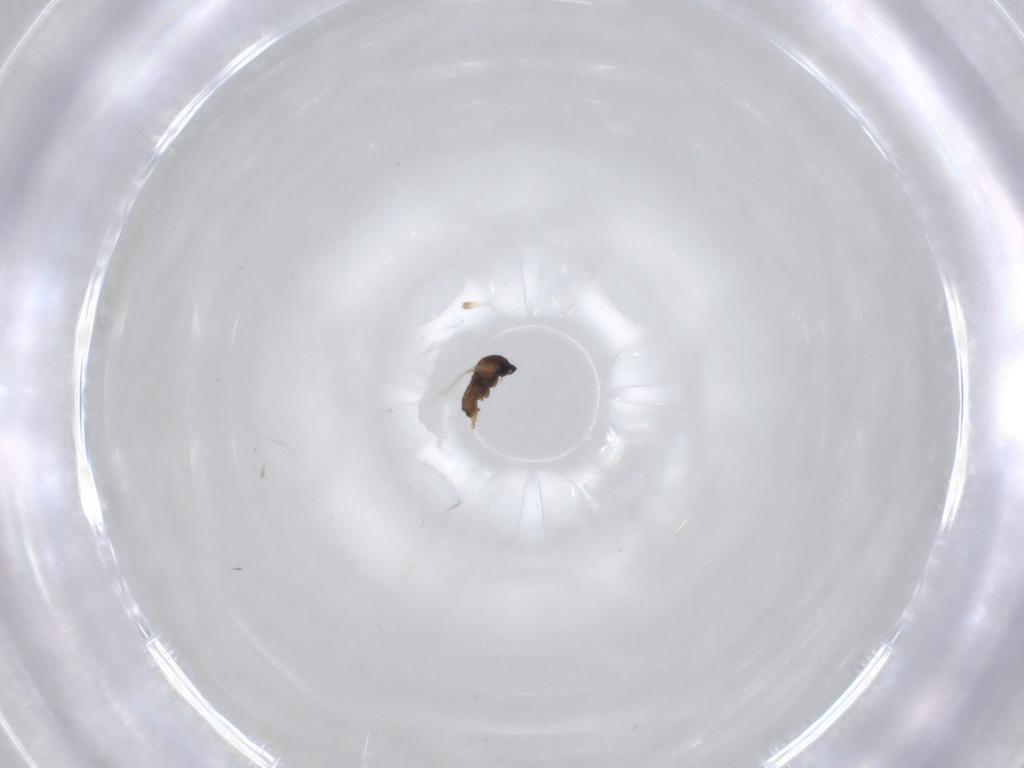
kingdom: Animalia
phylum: Arthropoda
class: Insecta
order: Diptera
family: Cecidomyiidae
